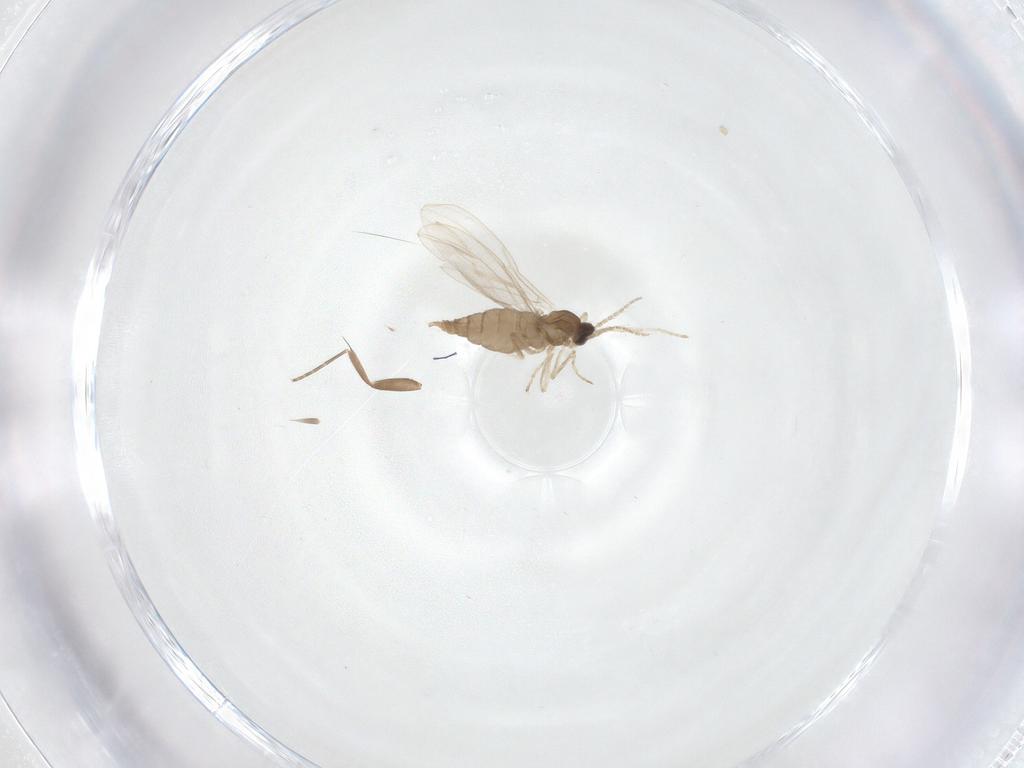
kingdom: Animalia
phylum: Arthropoda
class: Insecta
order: Diptera
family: Phoridae
